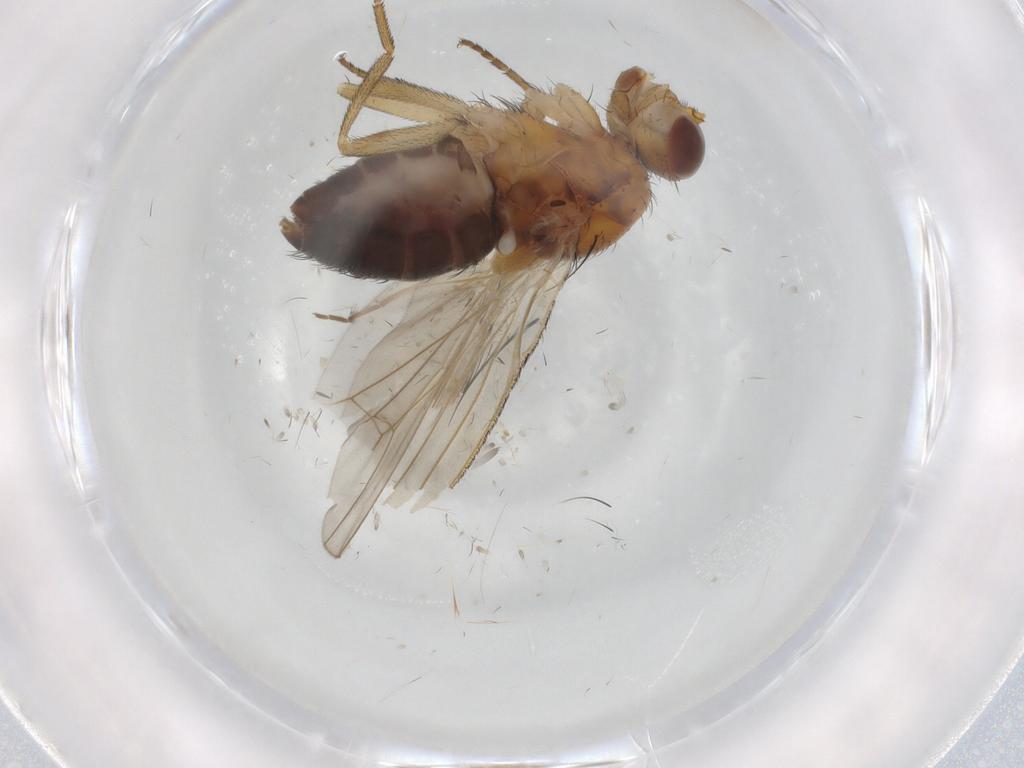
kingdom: Animalia
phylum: Arthropoda
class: Insecta
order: Diptera
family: Heleomyzidae
